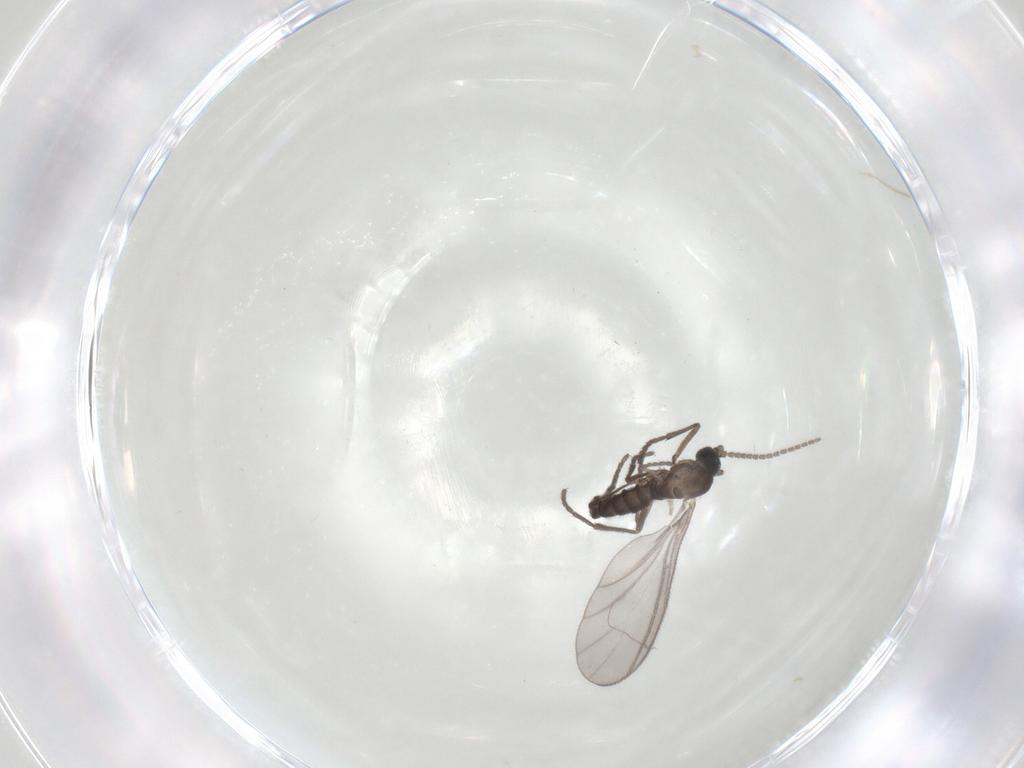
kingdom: Animalia
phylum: Arthropoda
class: Insecta
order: Diptera
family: Sciaridae
